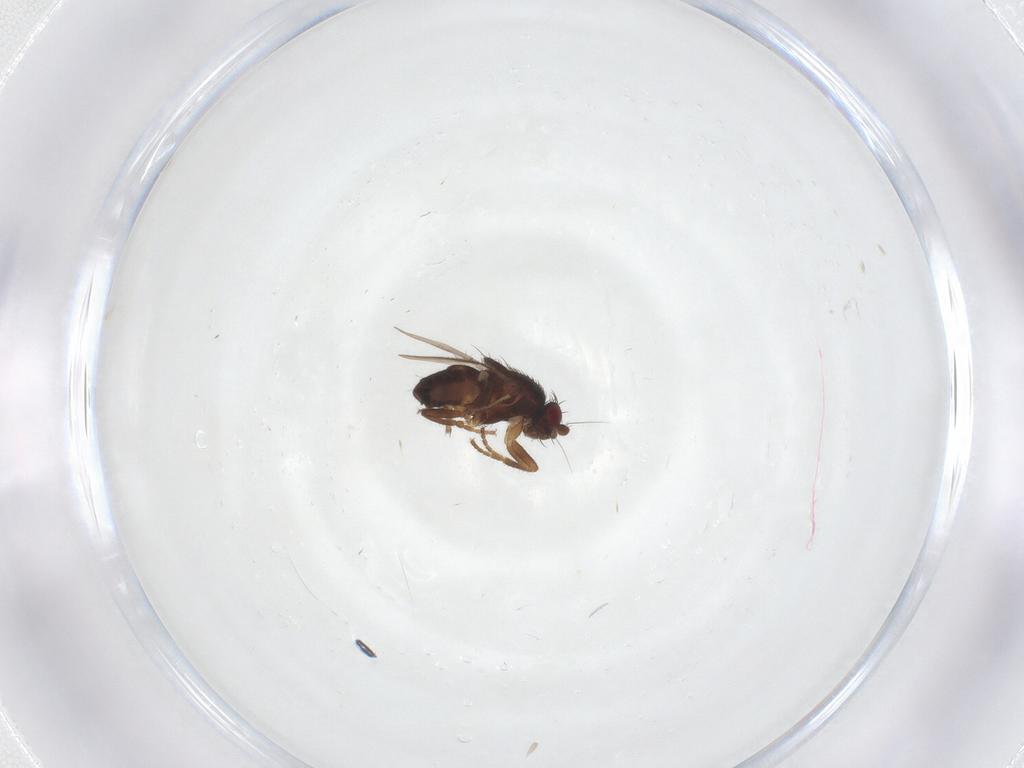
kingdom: Animalia
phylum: Arthropoda
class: Insecta
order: Diptera
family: Sphaeroceridae
